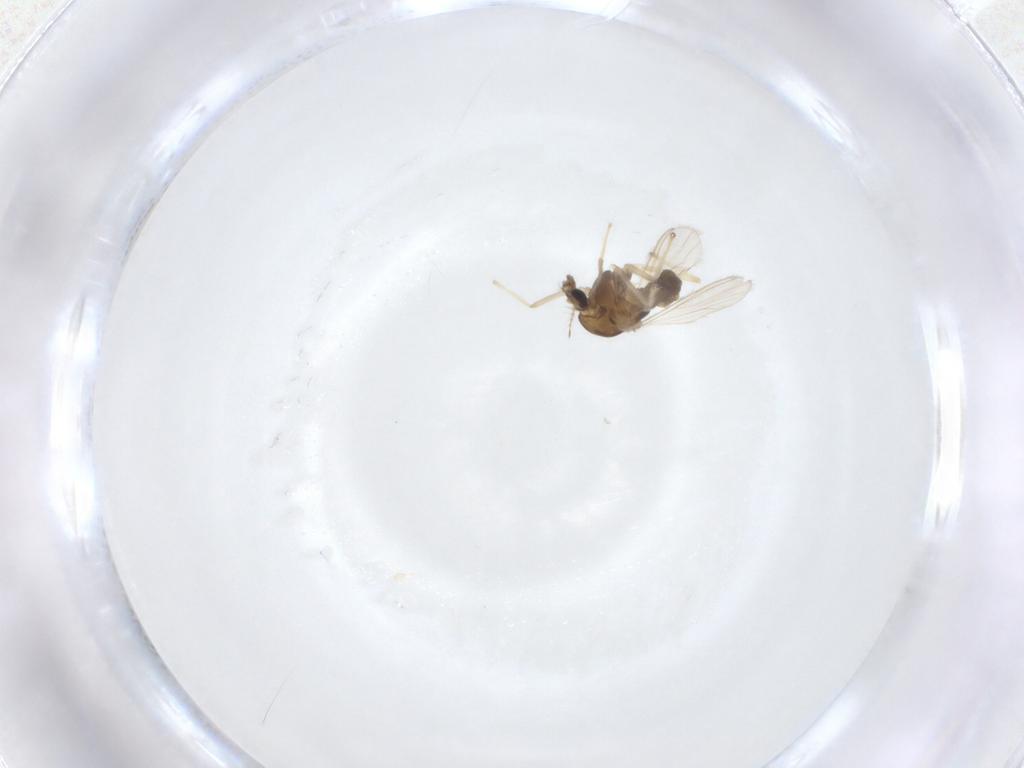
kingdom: Animalia
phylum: Arthropoda
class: Insecta
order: Diptera
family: Chironomidae
